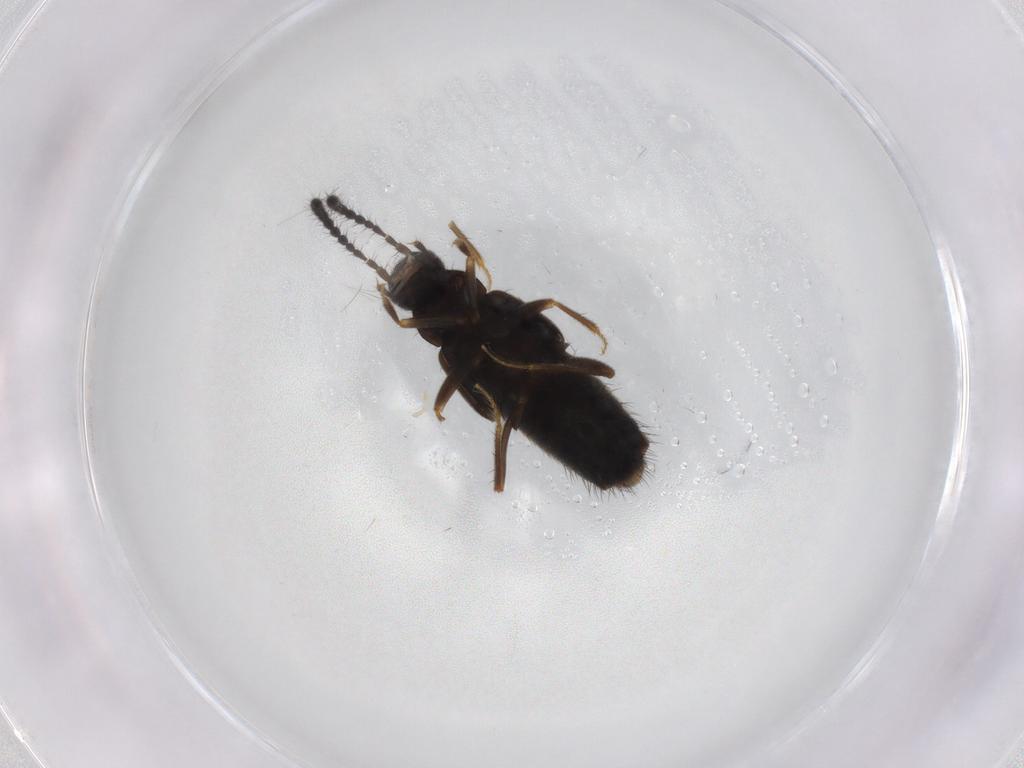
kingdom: Animalia
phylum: Arthropoda
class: Insecta
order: Coleoptera
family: Staphylinidae
